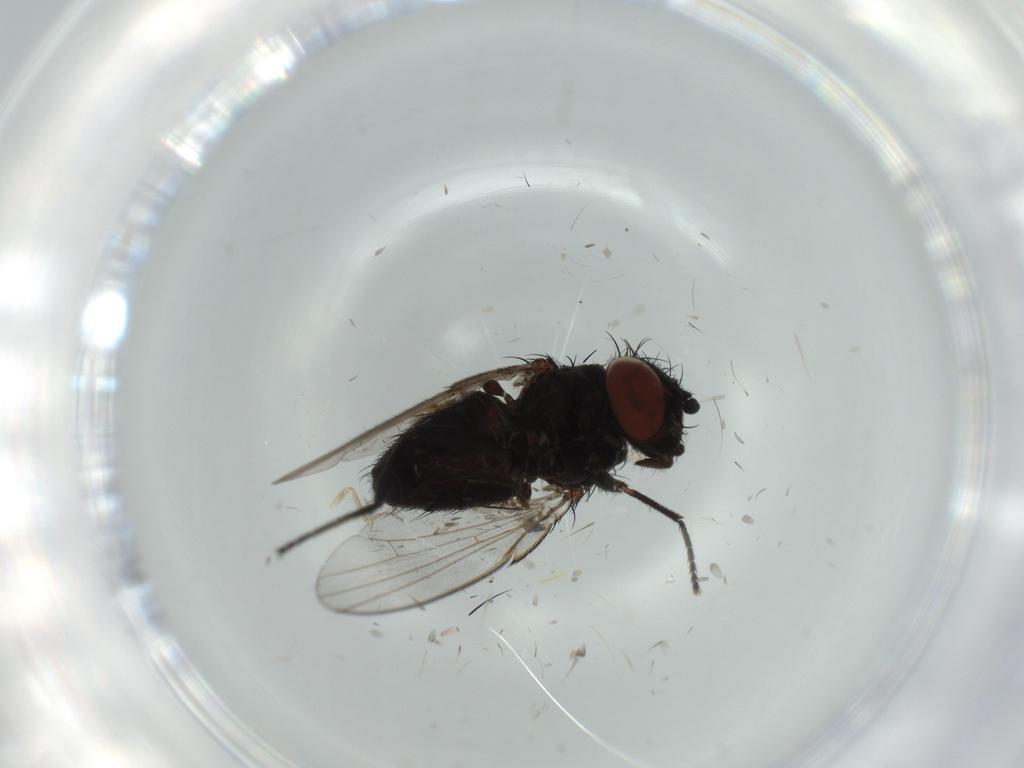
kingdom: Animalia
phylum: Arthropoda
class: Insecta
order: Diptera
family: Milichiidae
